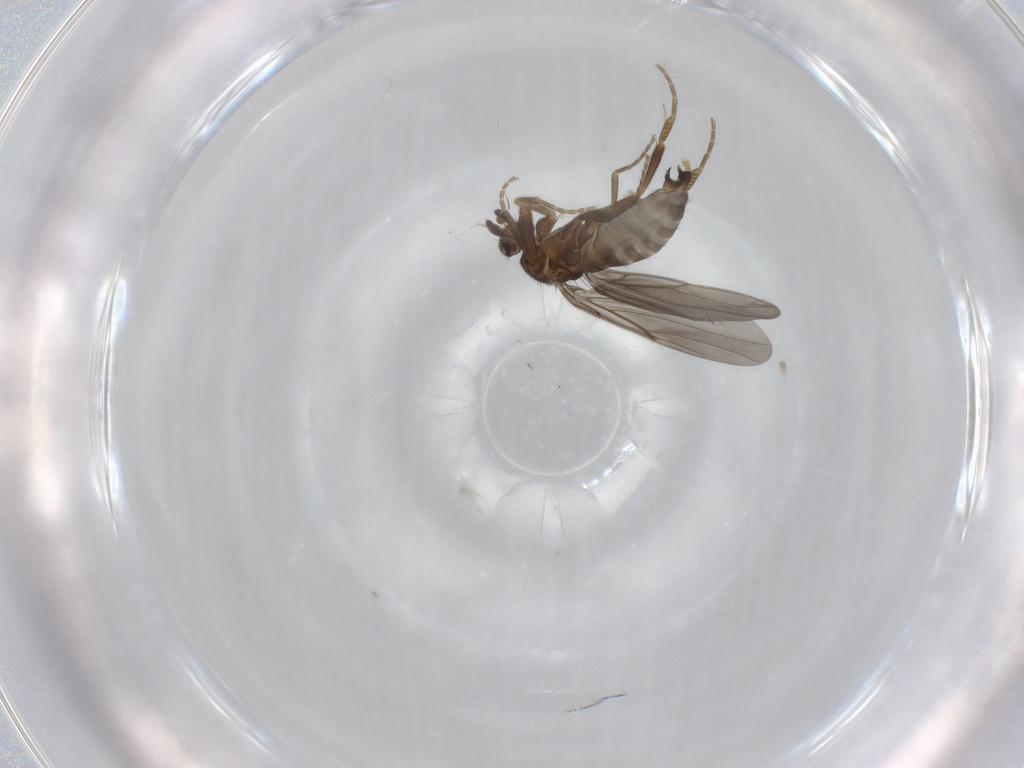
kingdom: Animalia
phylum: Arthropoda
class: Insecta
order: Diptera
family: Phoridae
